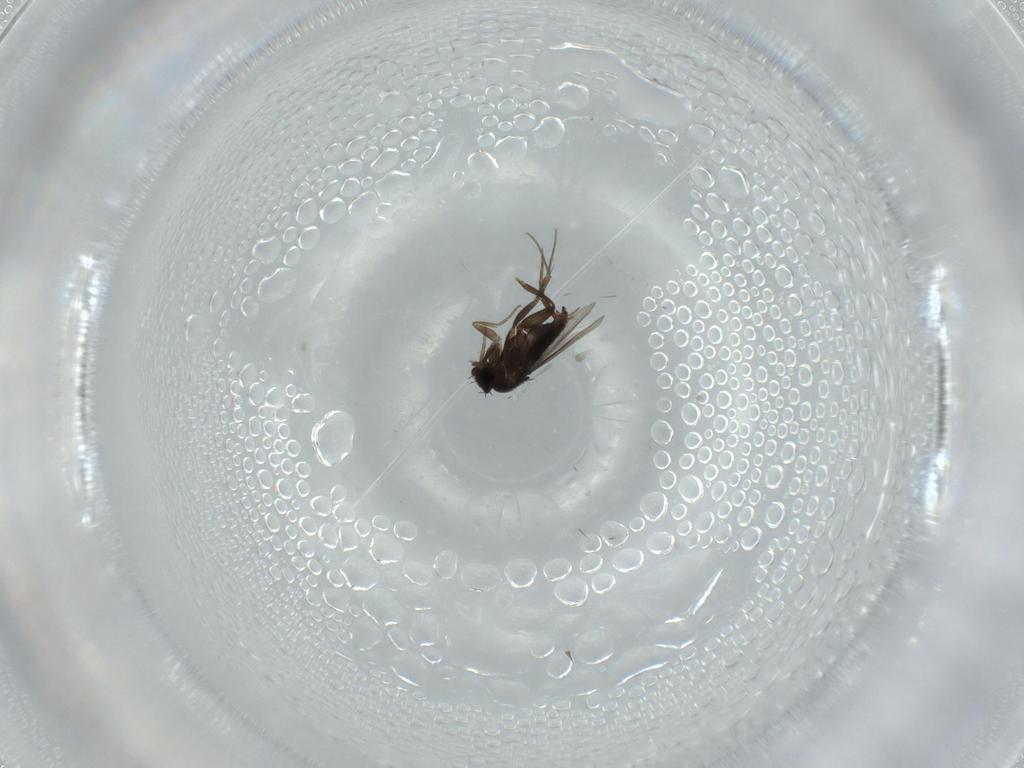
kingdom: Animalia
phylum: Arthropoda
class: Insecta
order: Diptera
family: Phoridae
